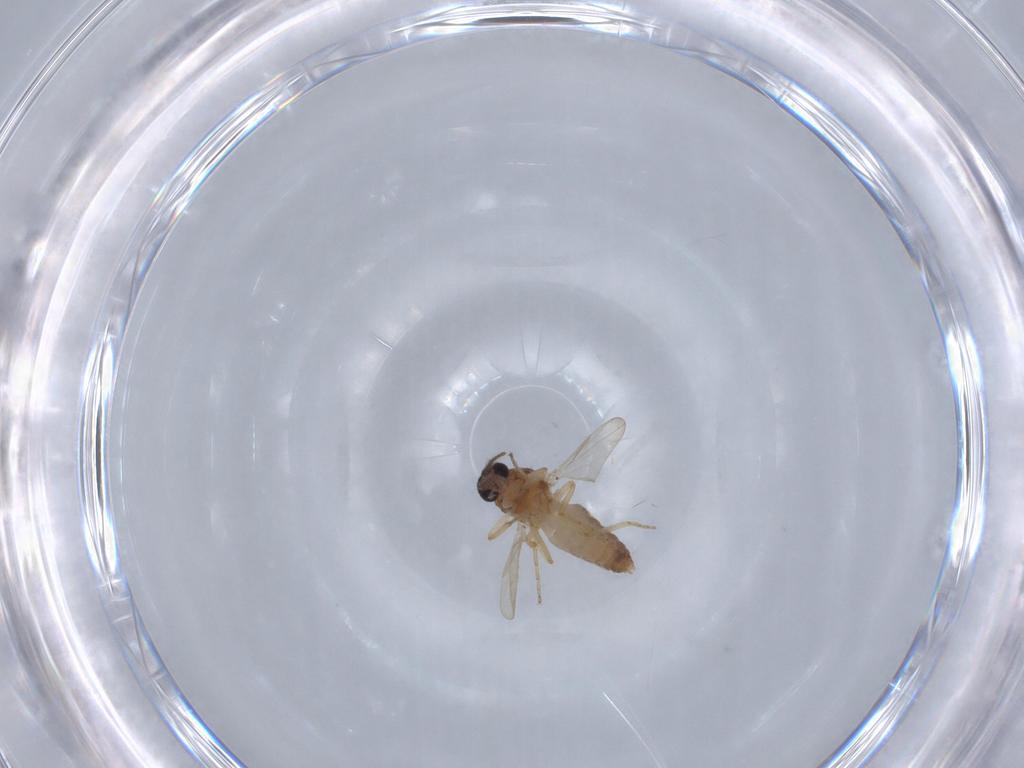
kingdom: Animalia
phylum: Arthropoda
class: Insecta
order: Diptera
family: Ceratopogonidae
